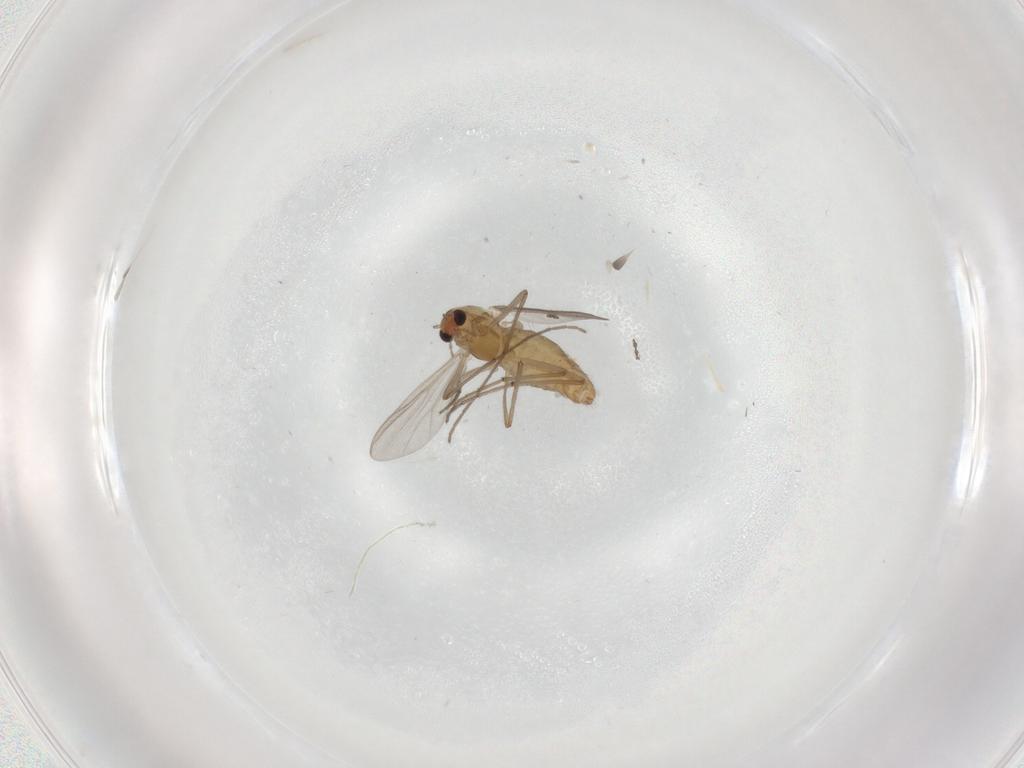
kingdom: Animalia
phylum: Arthropoda
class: Insecta
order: Diptera
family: Chironomidae
